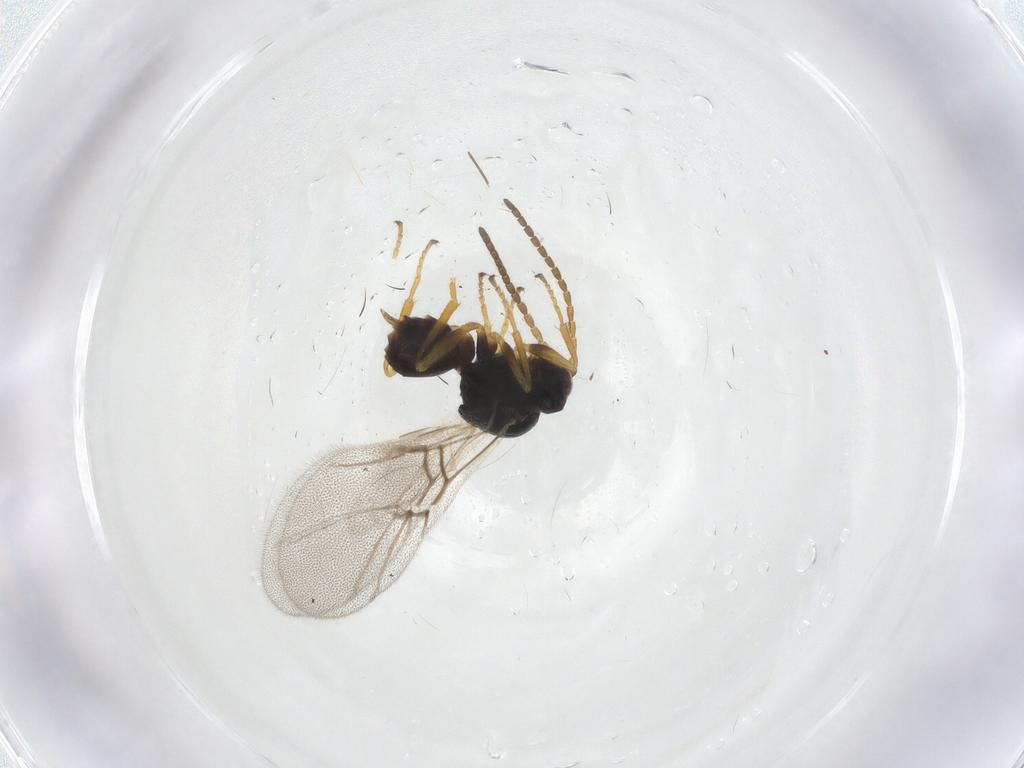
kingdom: Animalia
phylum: Arthropoda
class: Insecta
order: Hymenoptera
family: Cynipidae
